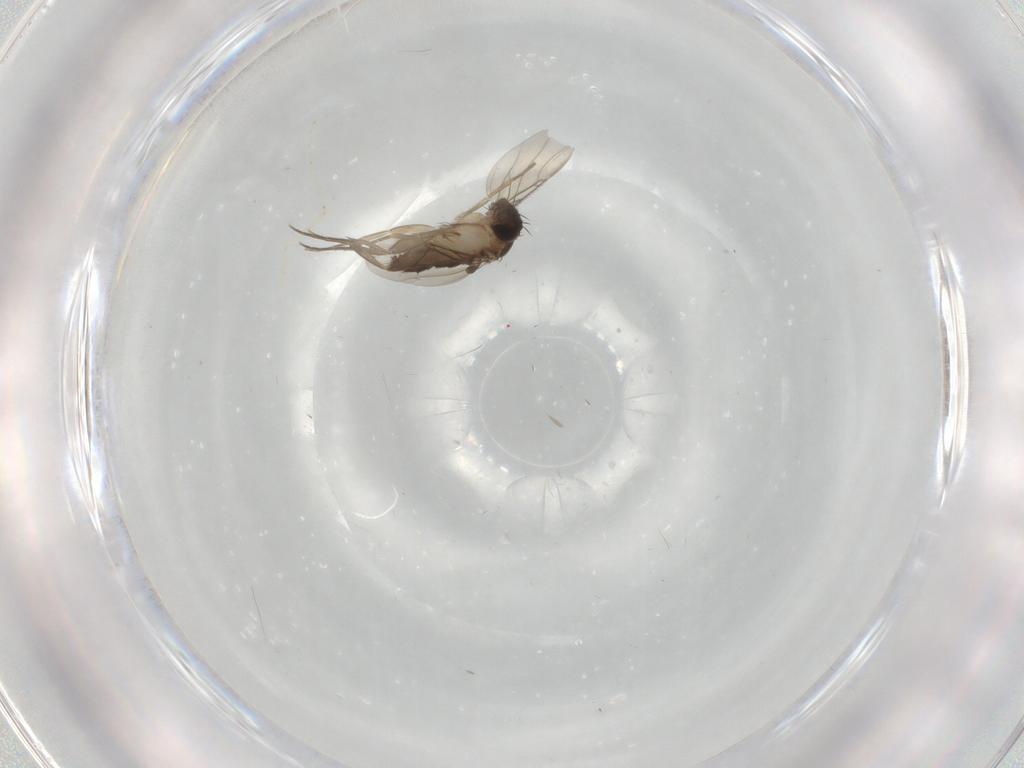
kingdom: Animalia
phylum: Arthropoda
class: Insecta
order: Diptera
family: Phoridae
